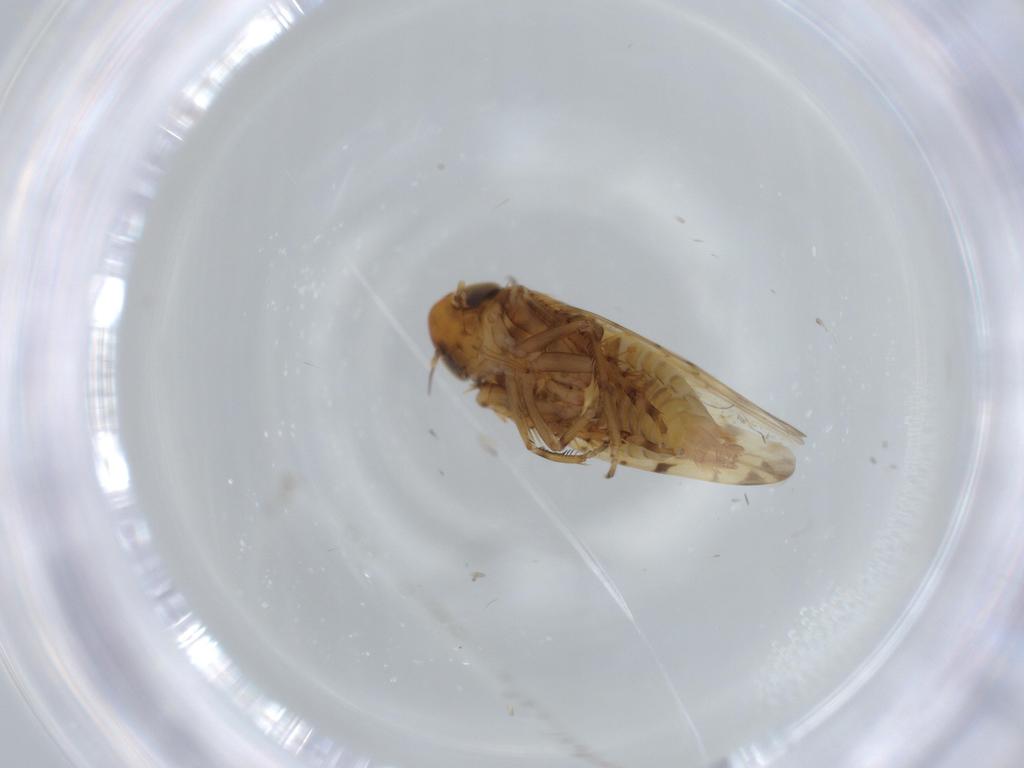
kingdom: Animalia
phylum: Arthropoda
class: Insecta
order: Hemiptera
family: Cicadellidae
